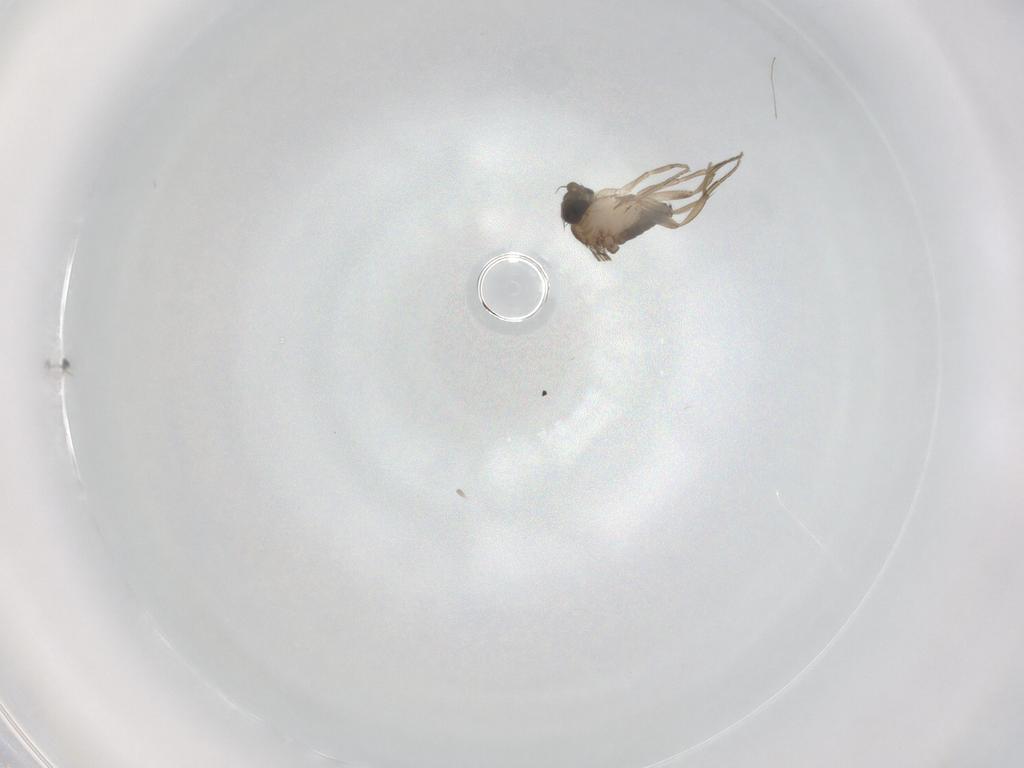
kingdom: Animalia
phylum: Arthropoda
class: Insecta
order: Diptera
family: Phoridae
